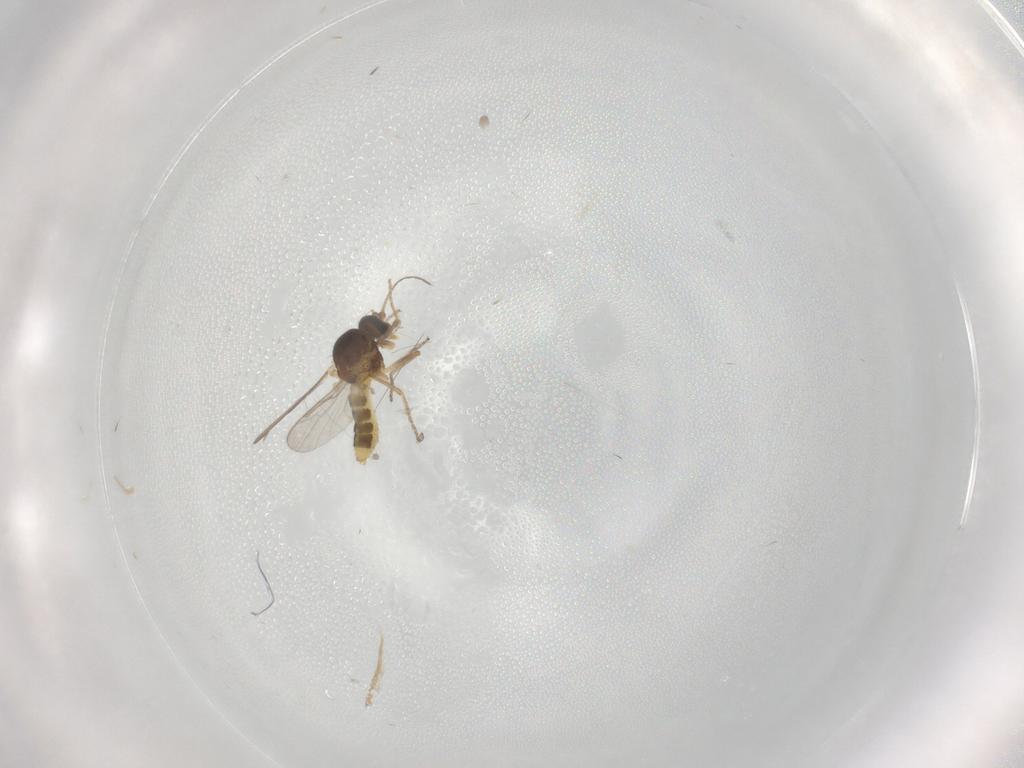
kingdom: Animalia
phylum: Arthropoda
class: Insecta
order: Diptera
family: Ceratopogonidae
